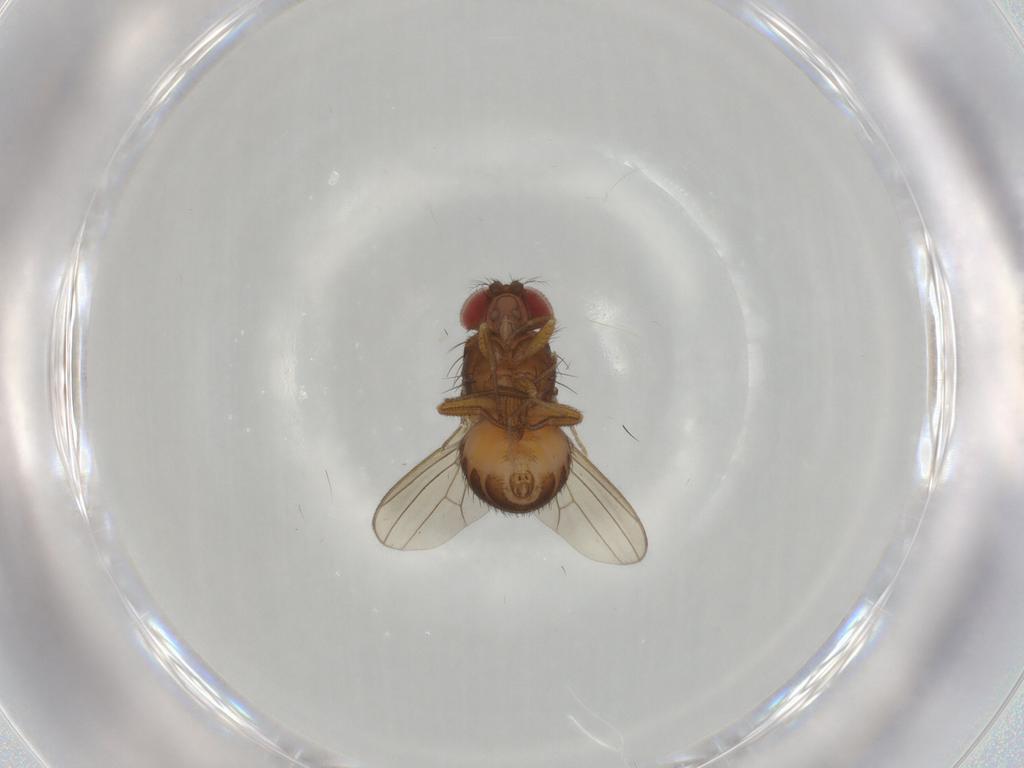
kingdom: Animalia
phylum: Arthropoda
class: Insecta
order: Diptera
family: Drosophilidae
